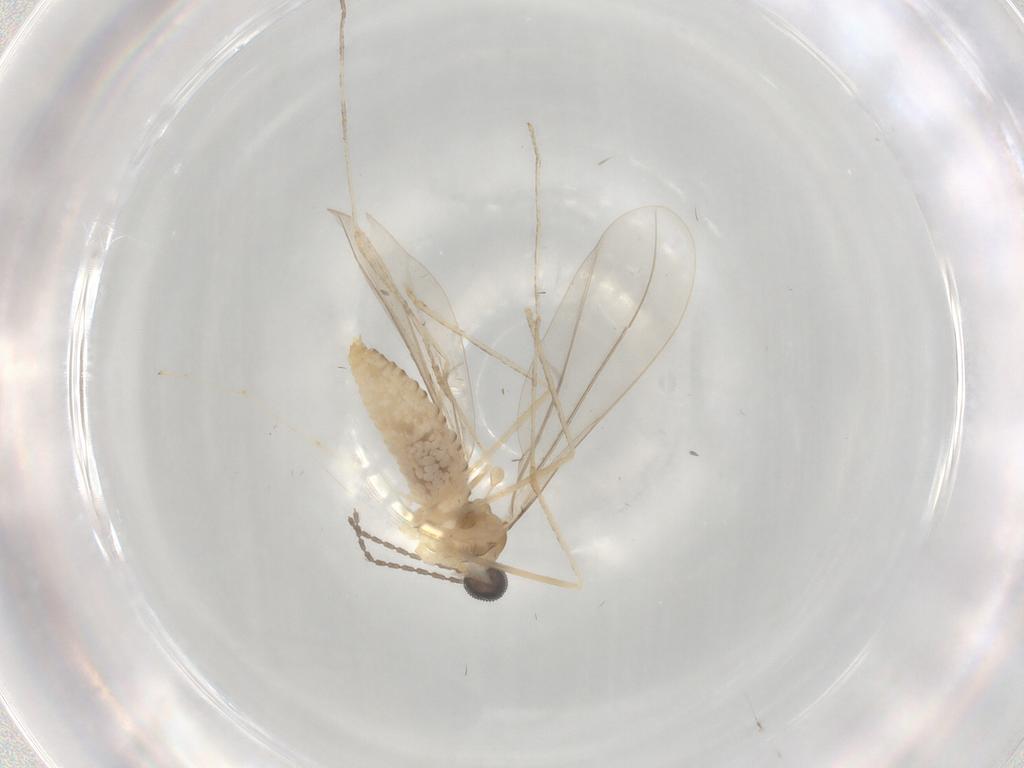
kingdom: Animalia
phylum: Arthropoda
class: Insecta
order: Diptera
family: Cecidomyiidae
